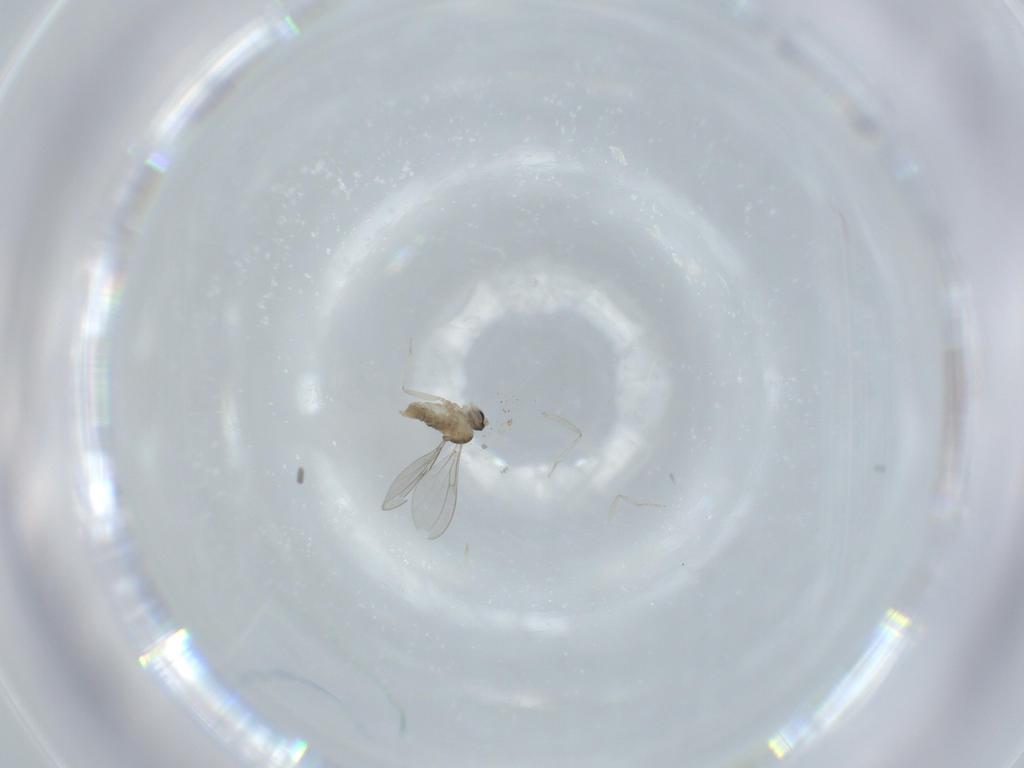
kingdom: Animalia
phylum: Arthropoda
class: Insecta
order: Diptera
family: Cecidomyiidae
